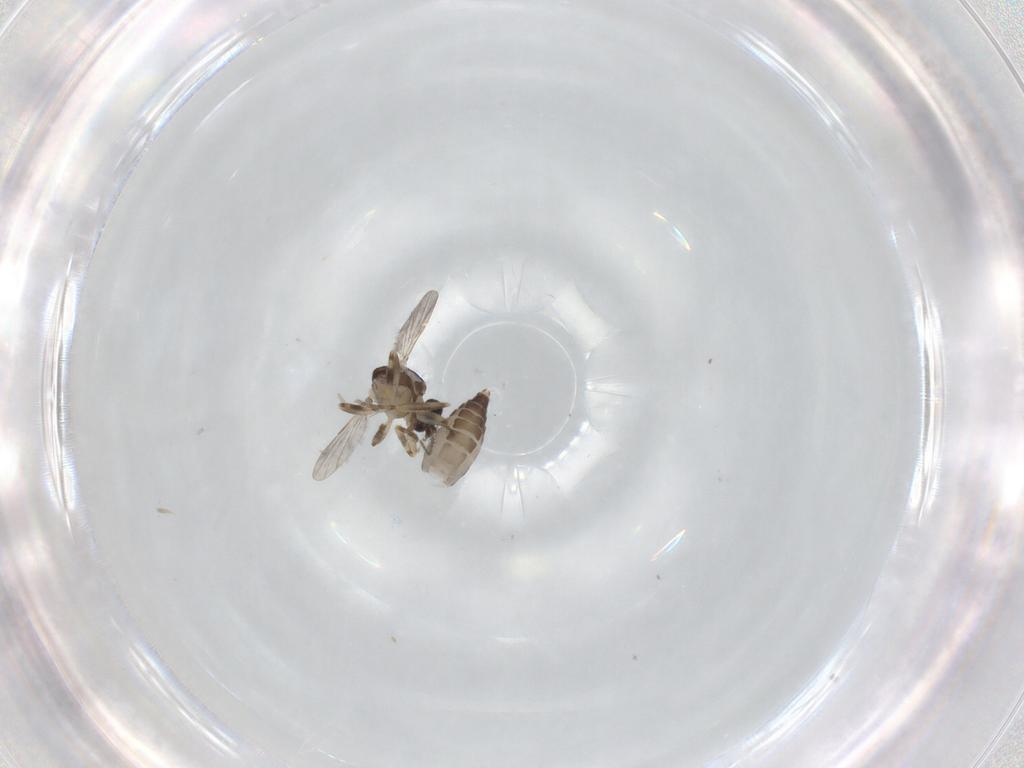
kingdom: Animalia
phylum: Arthropoda
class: Insecta
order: Diptera
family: Ceratopogonidae
